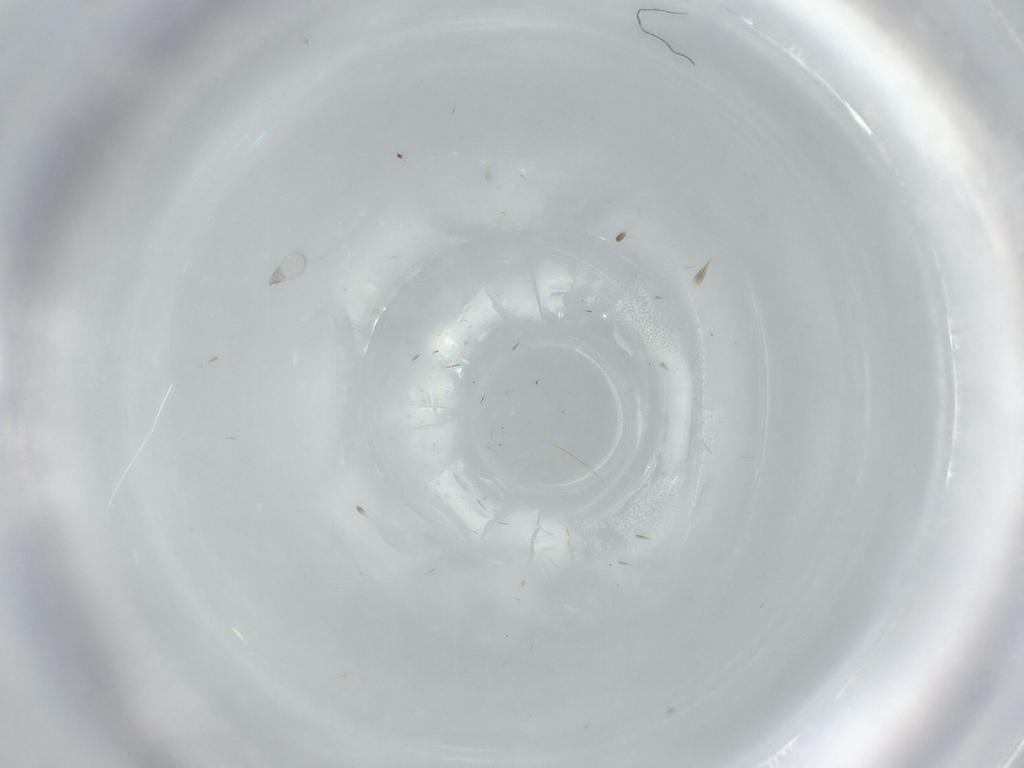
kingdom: Animalia
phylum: Arthropoda
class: Insecta
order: Hymenoptera
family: Trichogrammatidae
